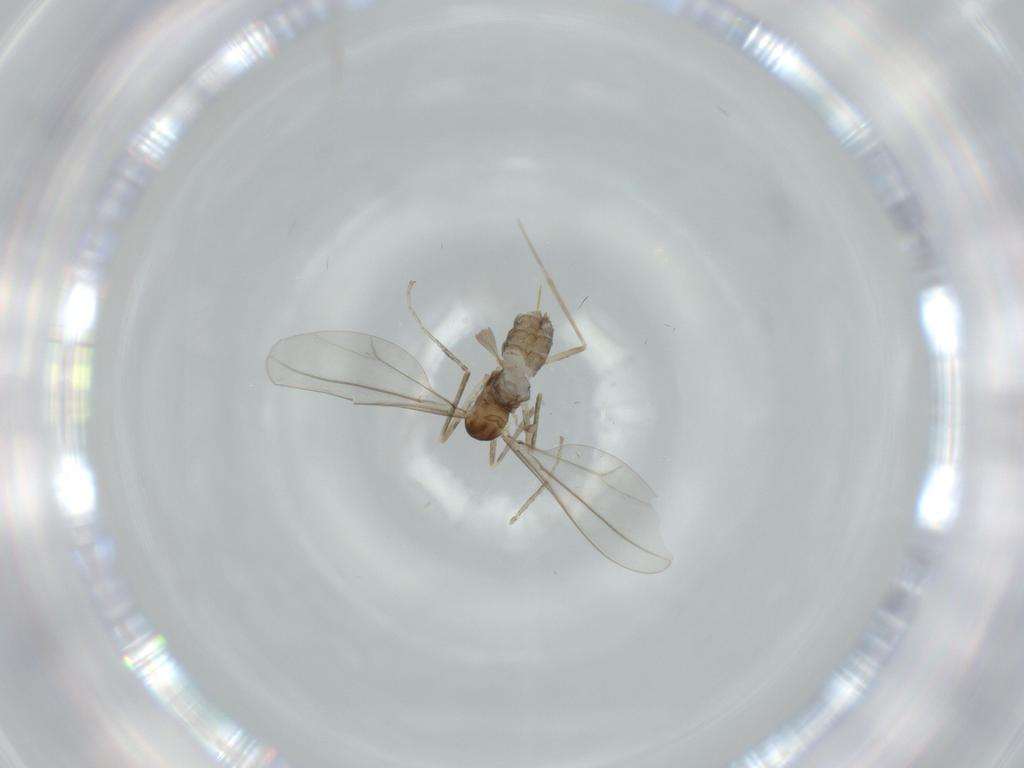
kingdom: Animalia
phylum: Arthropoda
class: Insecta
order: Diptera
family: Cecidomyiidae
